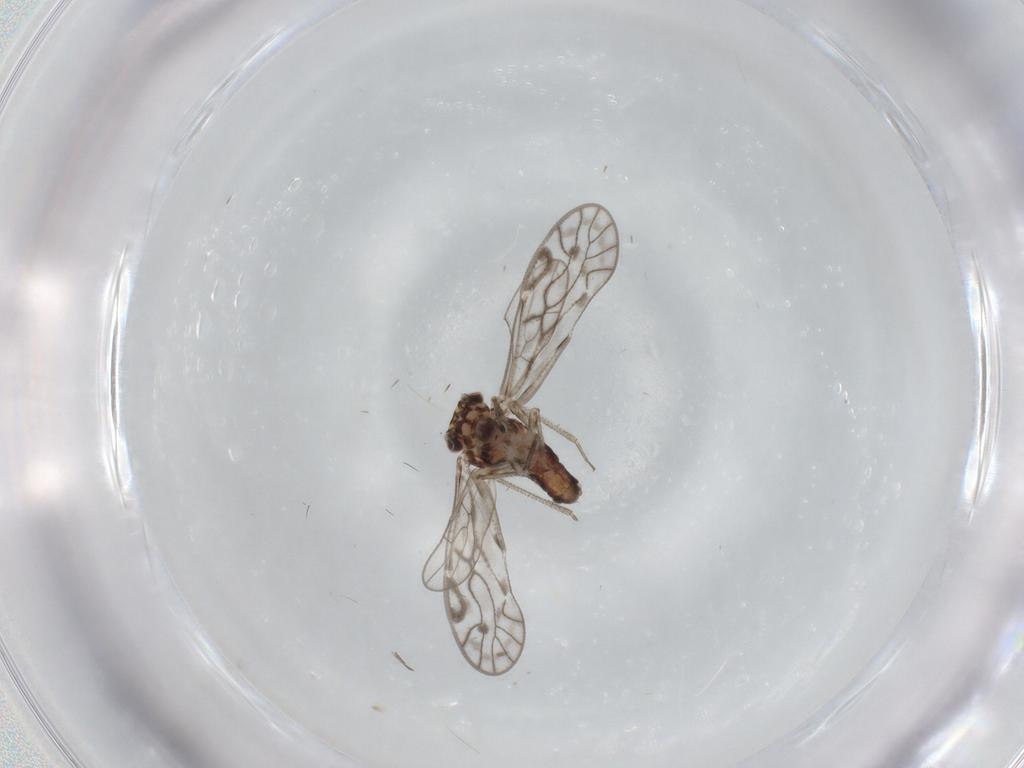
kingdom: Animalia
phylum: Arthropoda
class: Insecta
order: Psocodea
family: Psocidae
